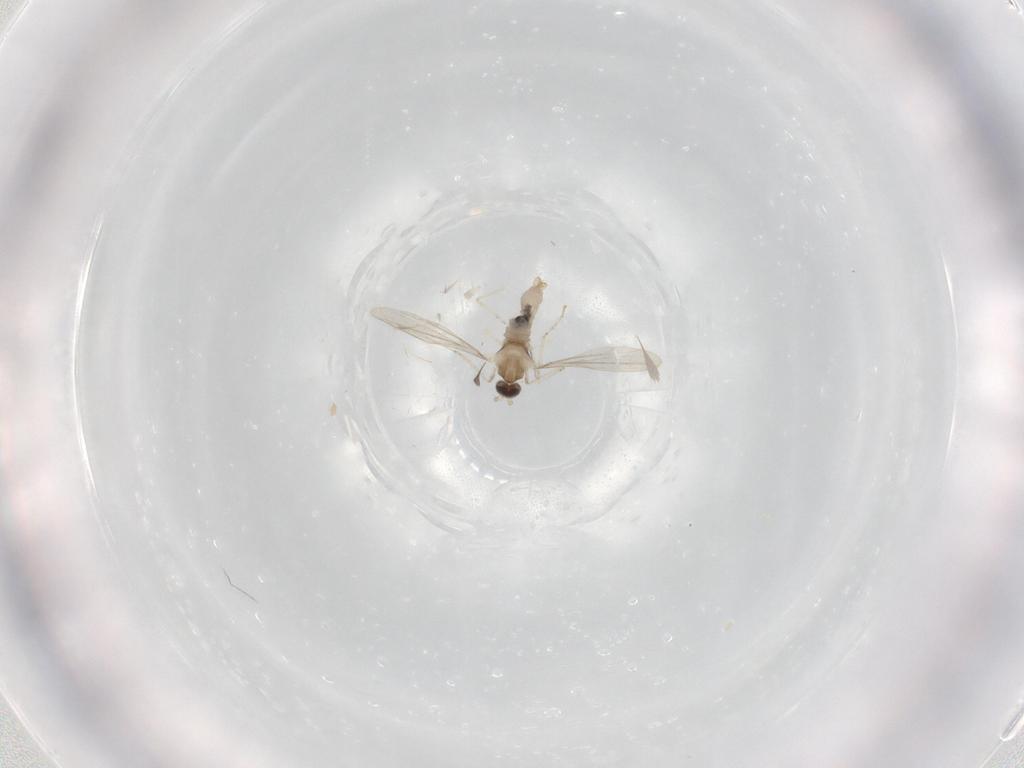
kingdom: Animalia
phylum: Arthropoda
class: Insecta
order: Diptera
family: Cecidomyiidae
